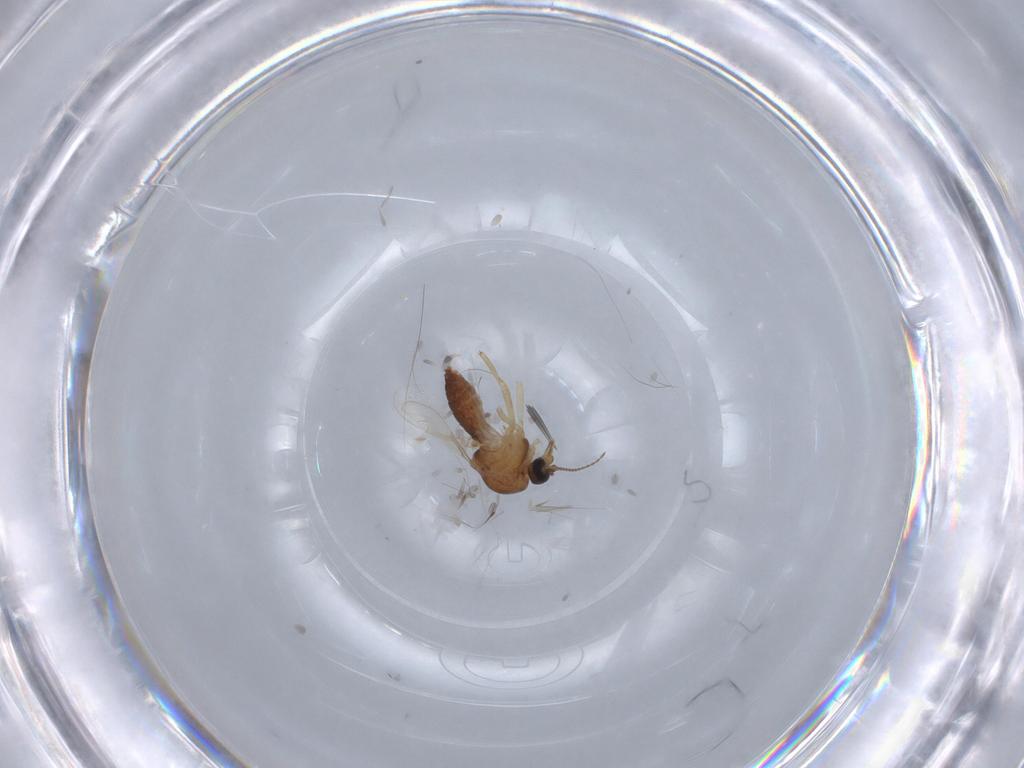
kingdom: Animalia
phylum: Arthropoda
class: Insecta
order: Diptera
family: Ceratopogonidae
